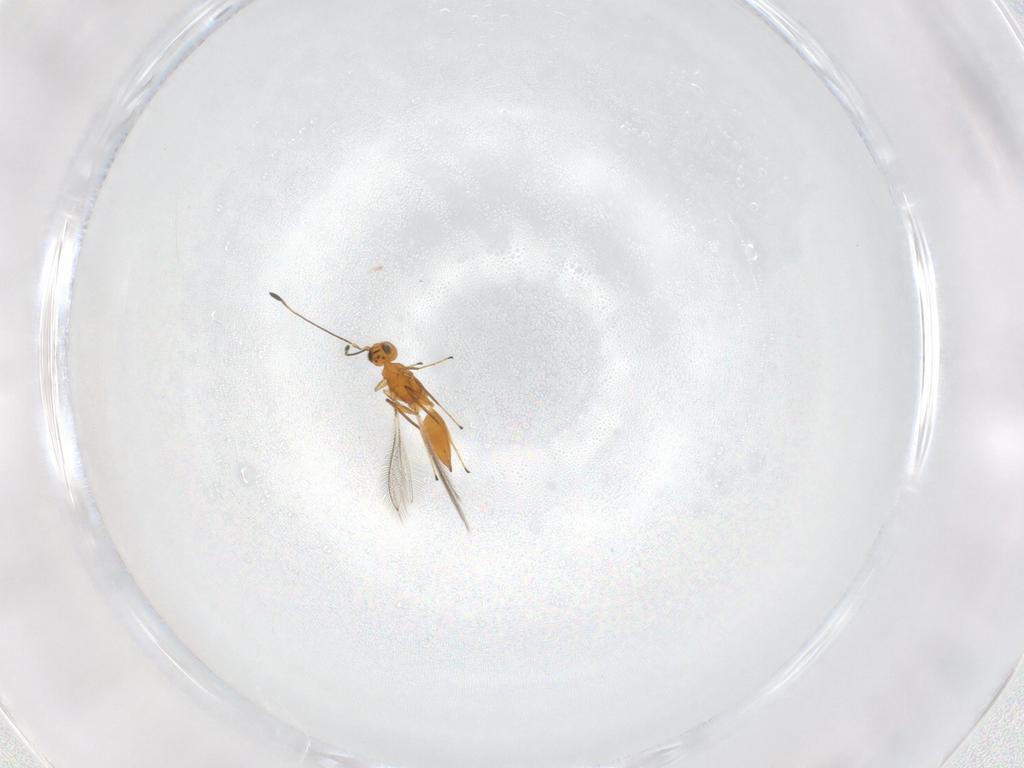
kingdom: Animalia
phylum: Arthropoda
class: Insecta
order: Hymenoptera
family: Mymaridae
